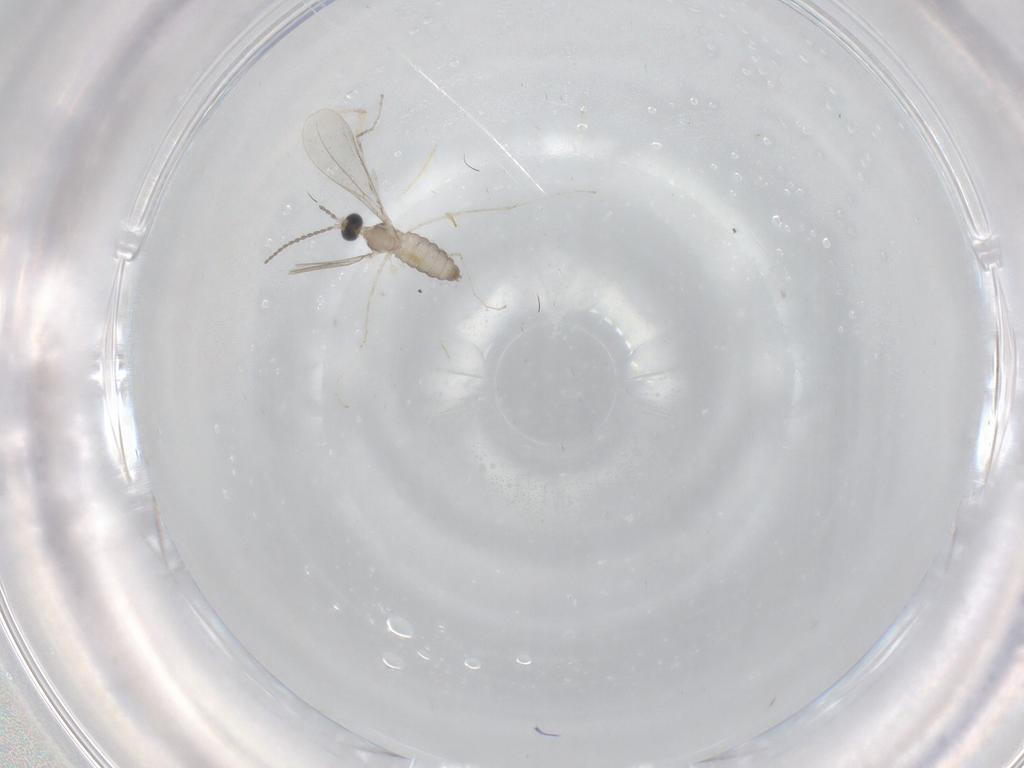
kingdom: Animalia
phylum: Arthropoda
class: Insecta
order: Diptera
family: Cecidomyiidae
